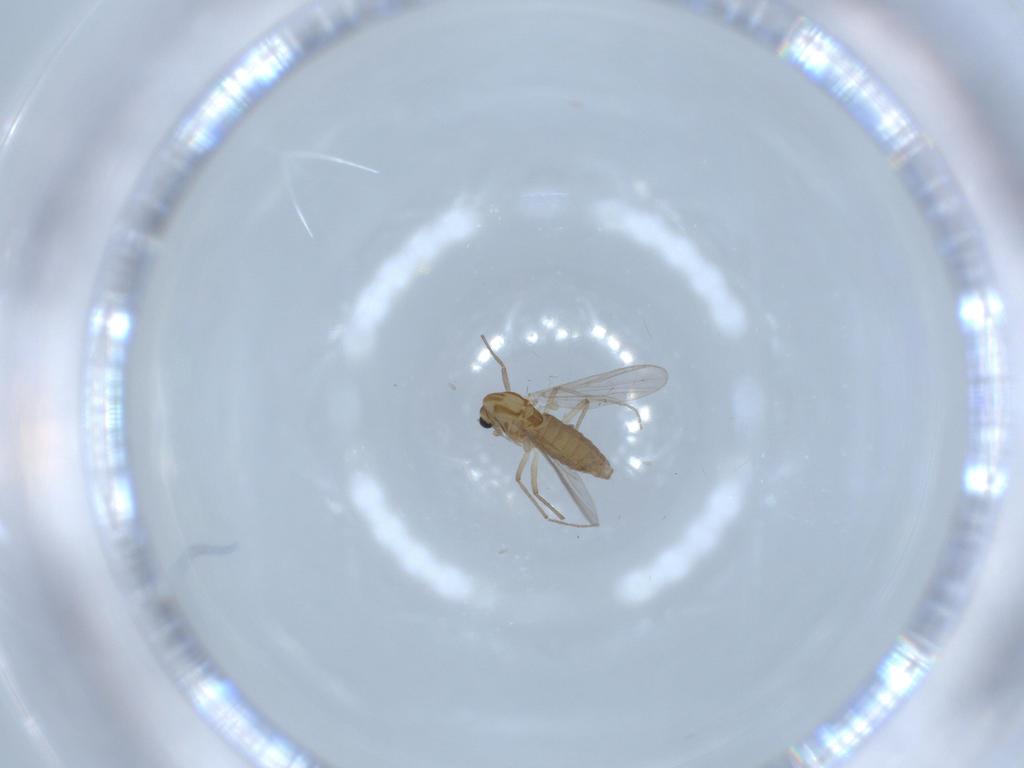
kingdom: Animalia
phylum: Arthropoda
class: Insecta
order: Diptera
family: Chironomidae
